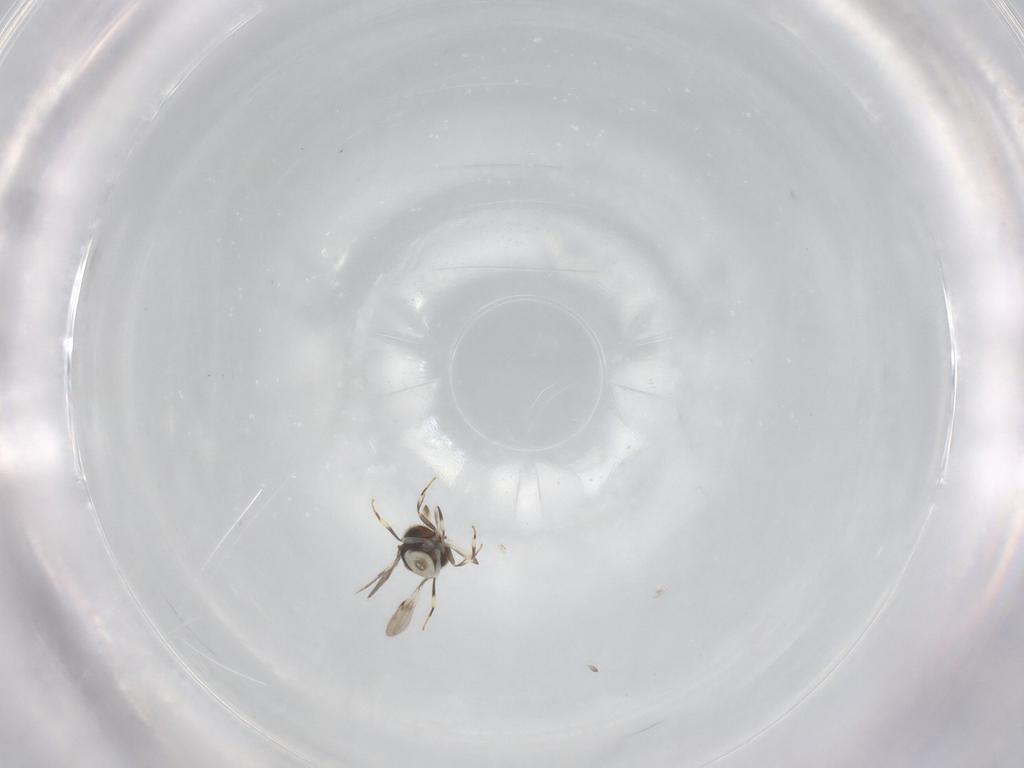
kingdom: Animalia
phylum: Arthropoda
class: Insecta
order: Hymenoptera
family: Scelionidae
